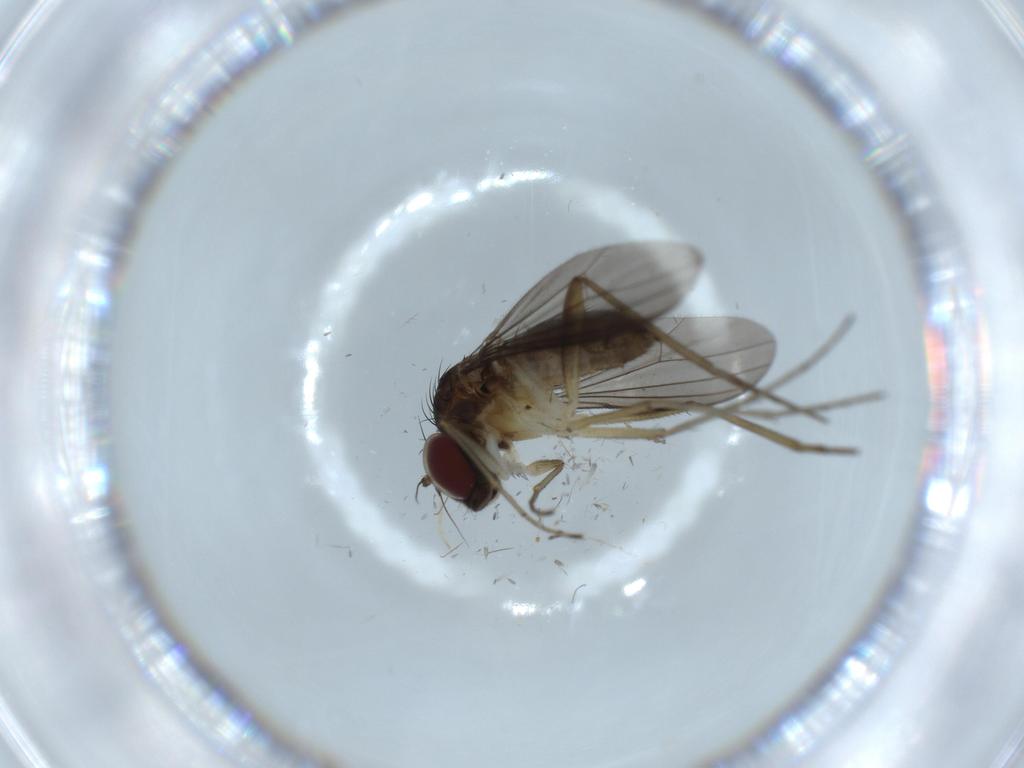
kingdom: Animalia
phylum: Arthropoda
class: Insecta
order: Diptera
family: Dolichopodidae
